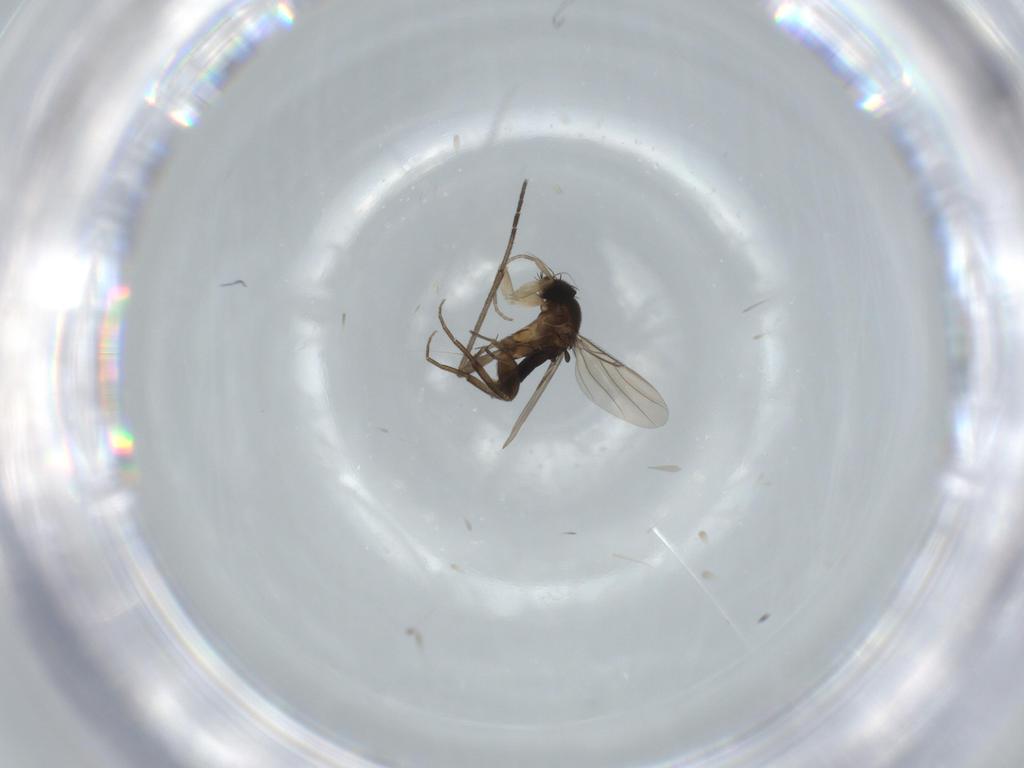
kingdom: Animalia
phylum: Arthropoda
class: Insecta
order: Diptera
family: Phoridae
